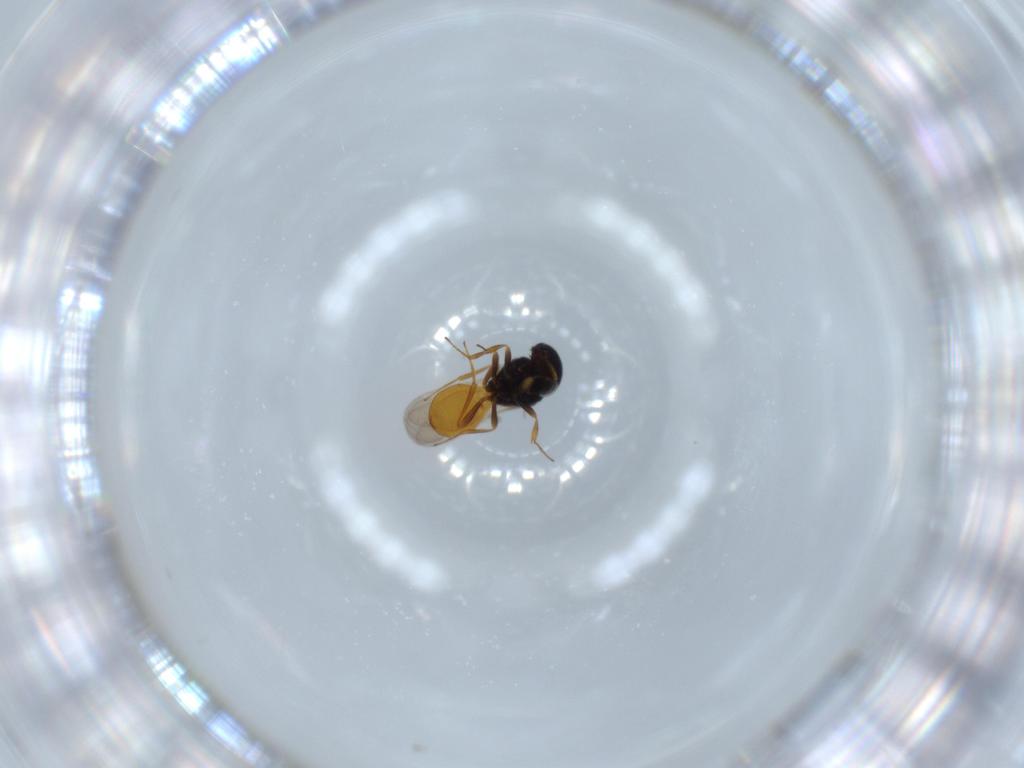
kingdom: Animalia
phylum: Arthropoda
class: Insecta
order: Hymenoptera
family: Scelionidae
